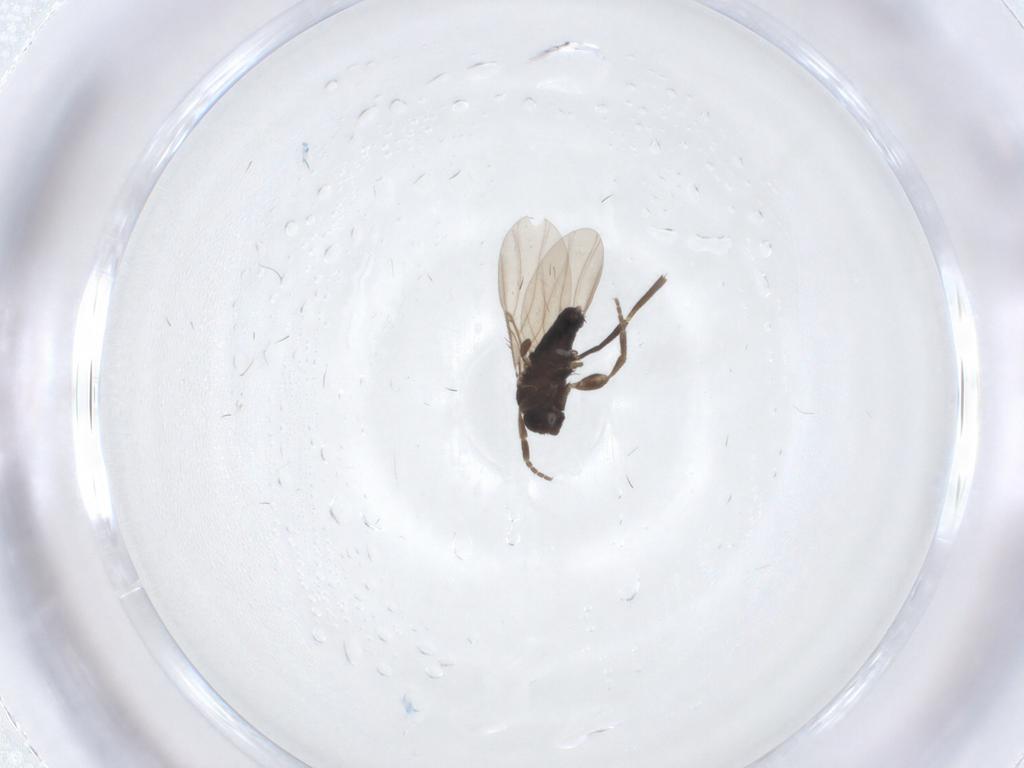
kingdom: Animalia
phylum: Arthropoda
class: Insecta
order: Diptera
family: Phoridae
